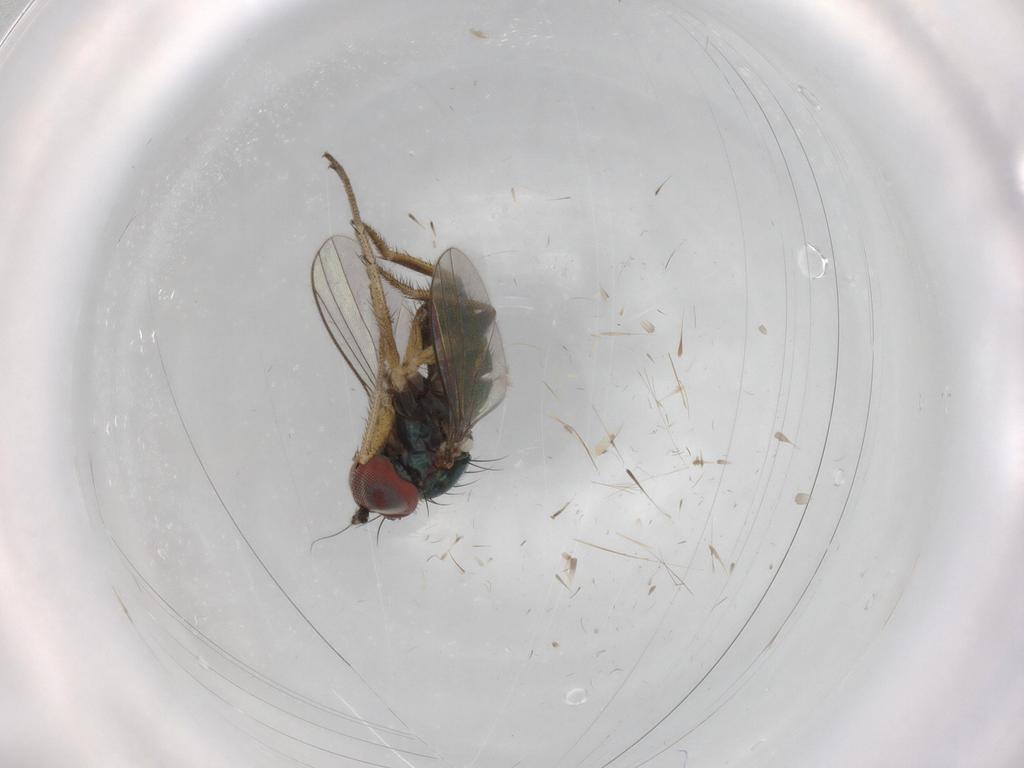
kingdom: Animalia
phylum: Arthropoda
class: Insecta
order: Diptera
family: Dolichopodidae
